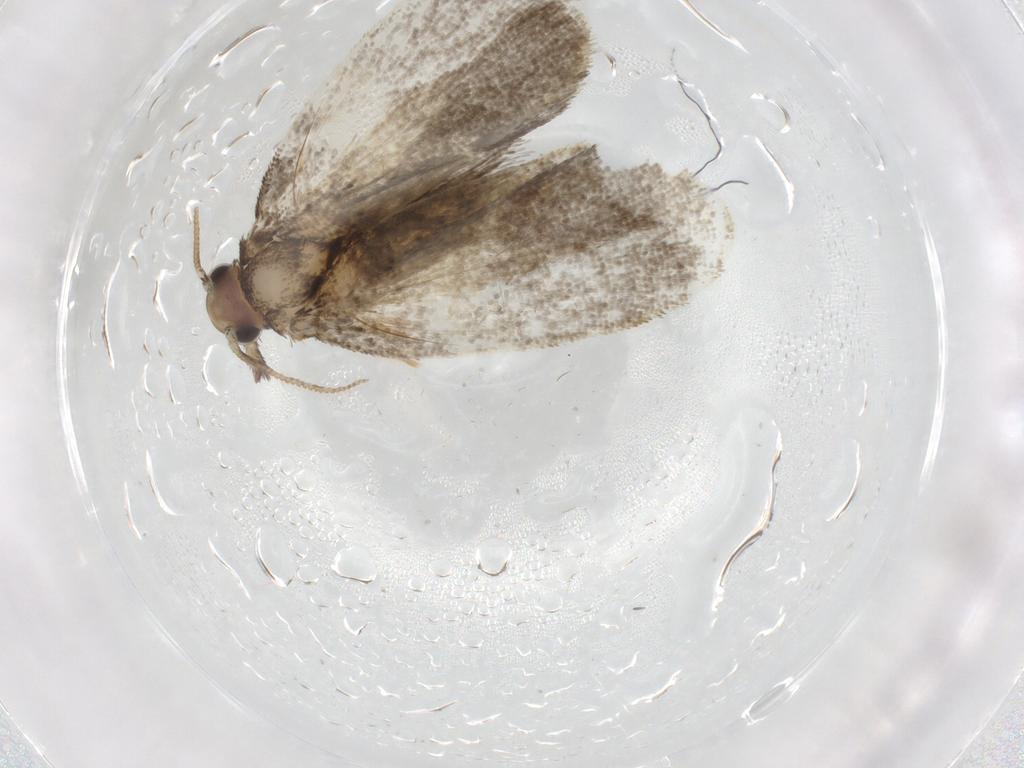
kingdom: Animalia
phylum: Arthropoda
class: Insecta
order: Lepidoptera
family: Psychidae
